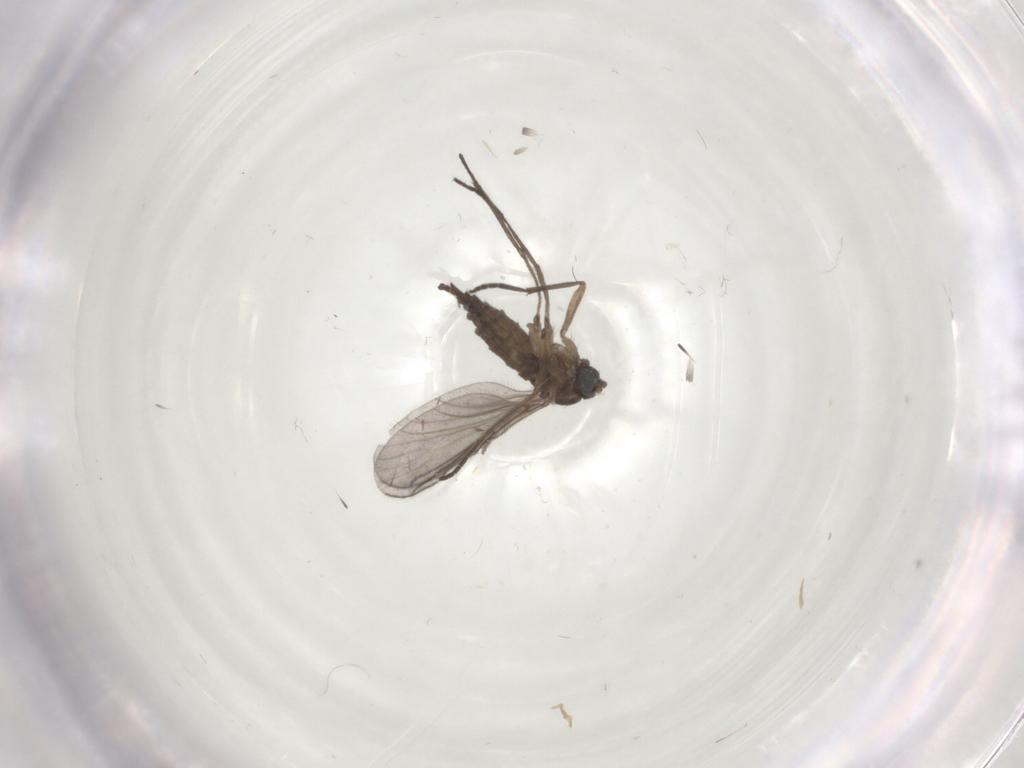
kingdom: Animalia
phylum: Arthropoda
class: Insecta
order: Diptera
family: Sciaridae
